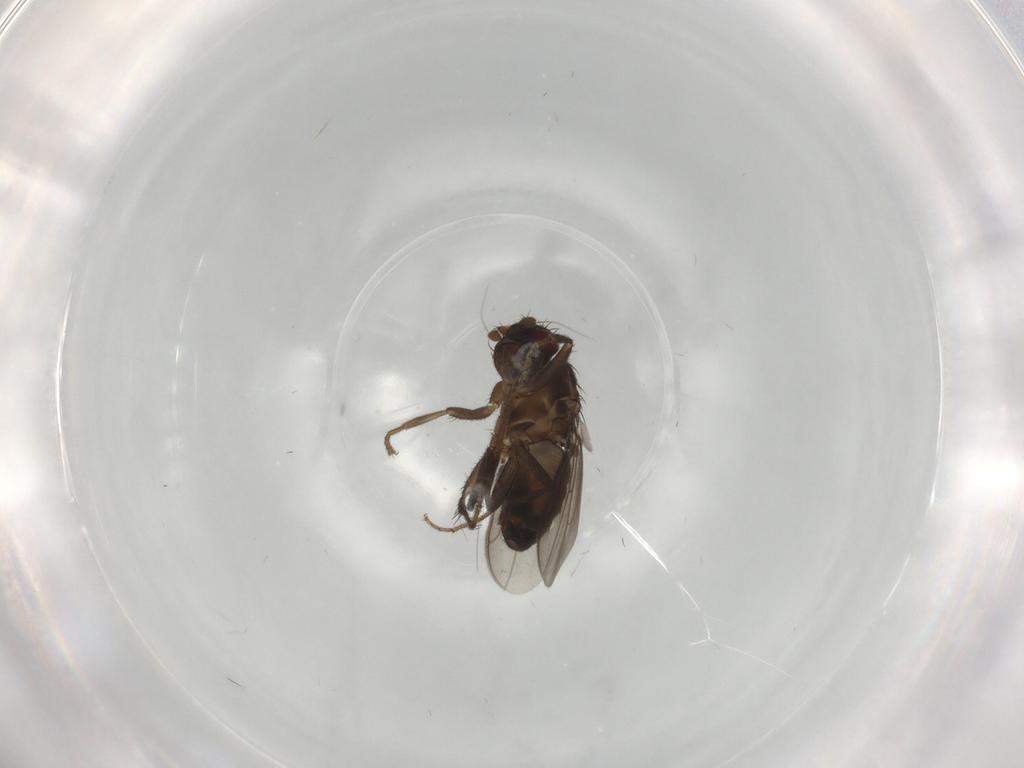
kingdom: Animalia
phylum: Arthropoda
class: Insecta
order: Diptera
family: Sphaeroceridae
